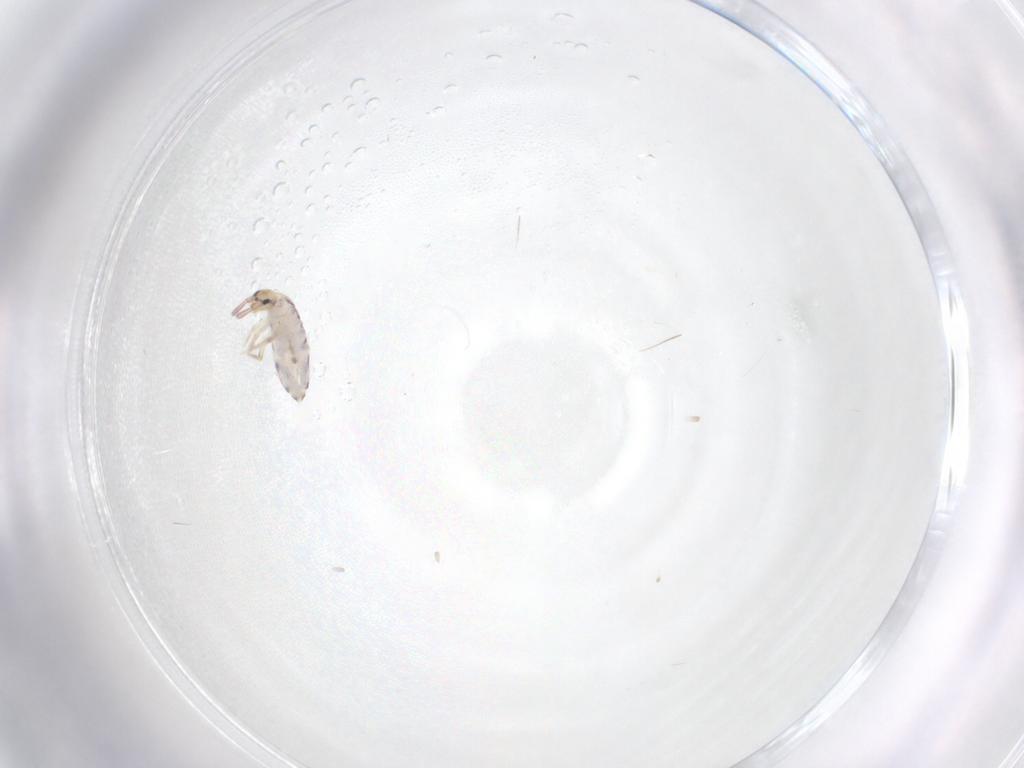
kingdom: Animalia
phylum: Arthropoda
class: Collembola
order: Entomobryomorpha
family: Entomobryidae
